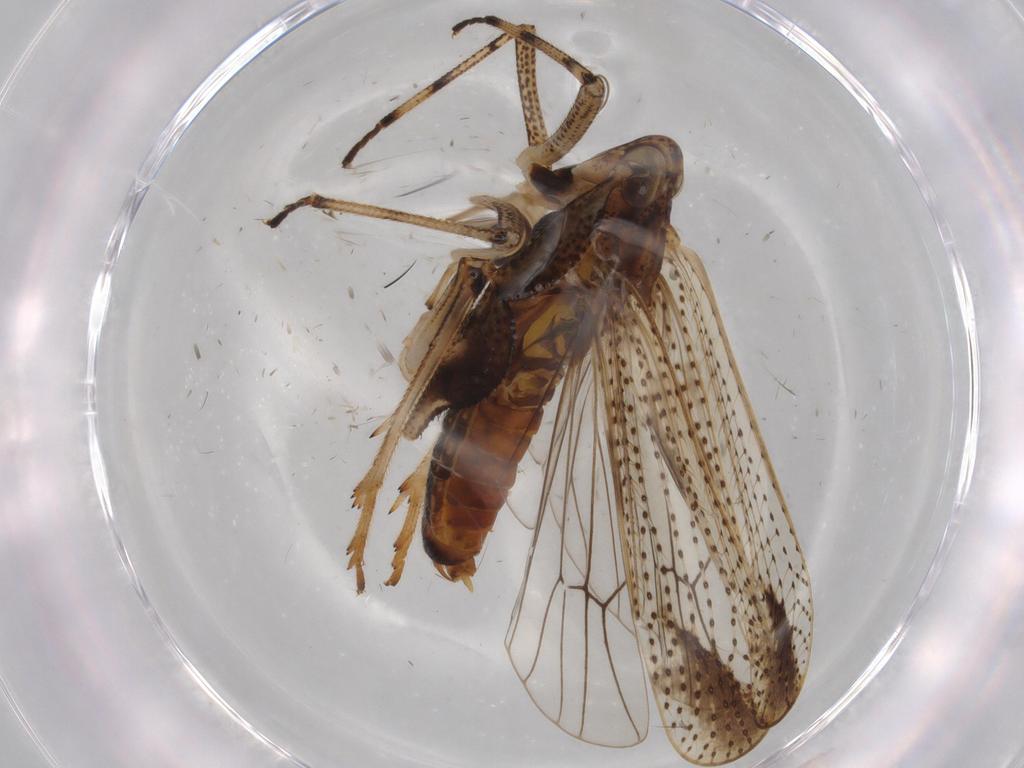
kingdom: Animalia
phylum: Arthropoda
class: Insecta
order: Psocodea
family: Myopsocidae
